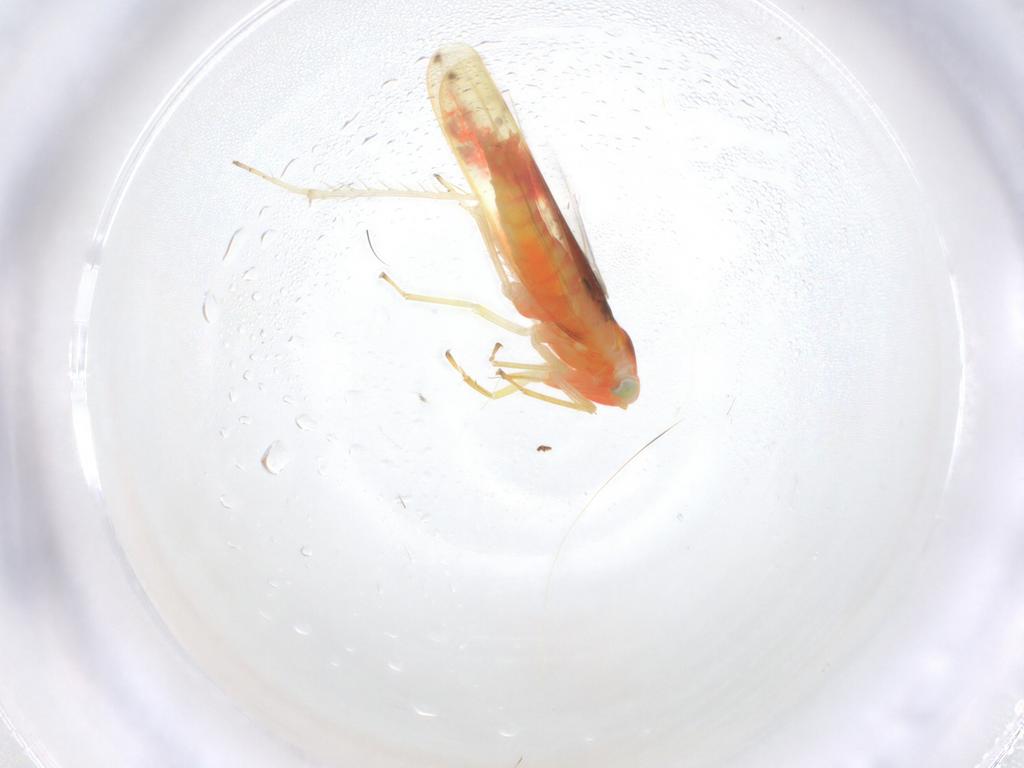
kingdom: Animalia
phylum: Arthropoda
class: Insecta
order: Hemiptera
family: Cicadellidae
